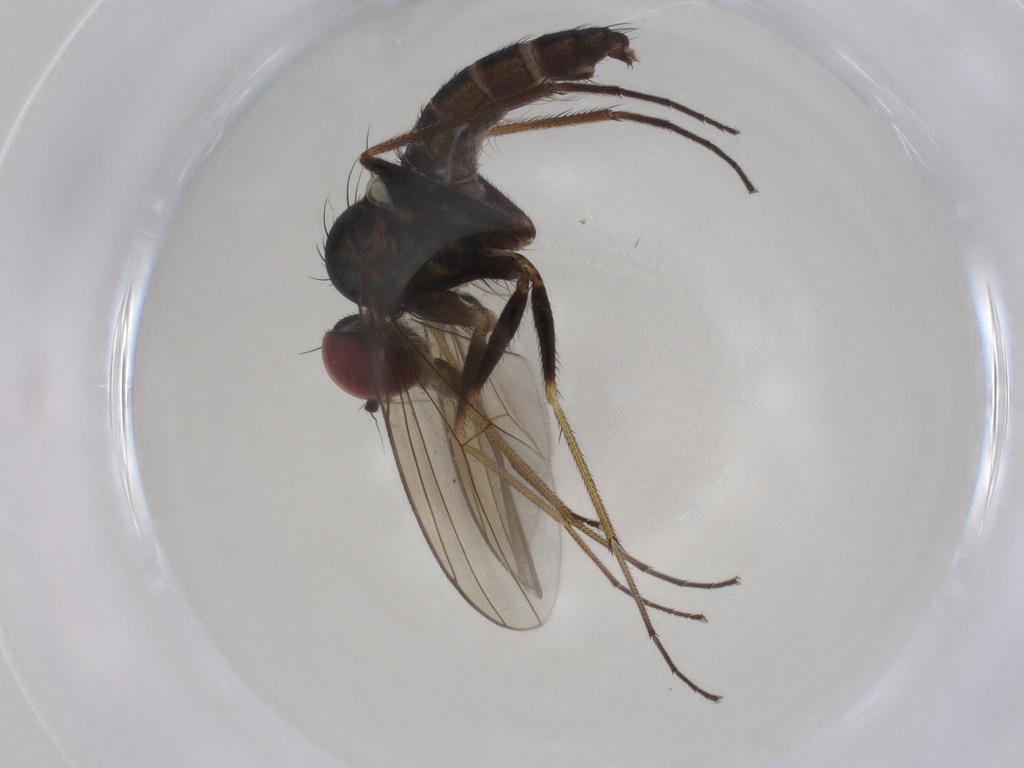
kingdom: Animalia
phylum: Arthropoda
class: Insecta
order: Diptera
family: Dolichopodidae
